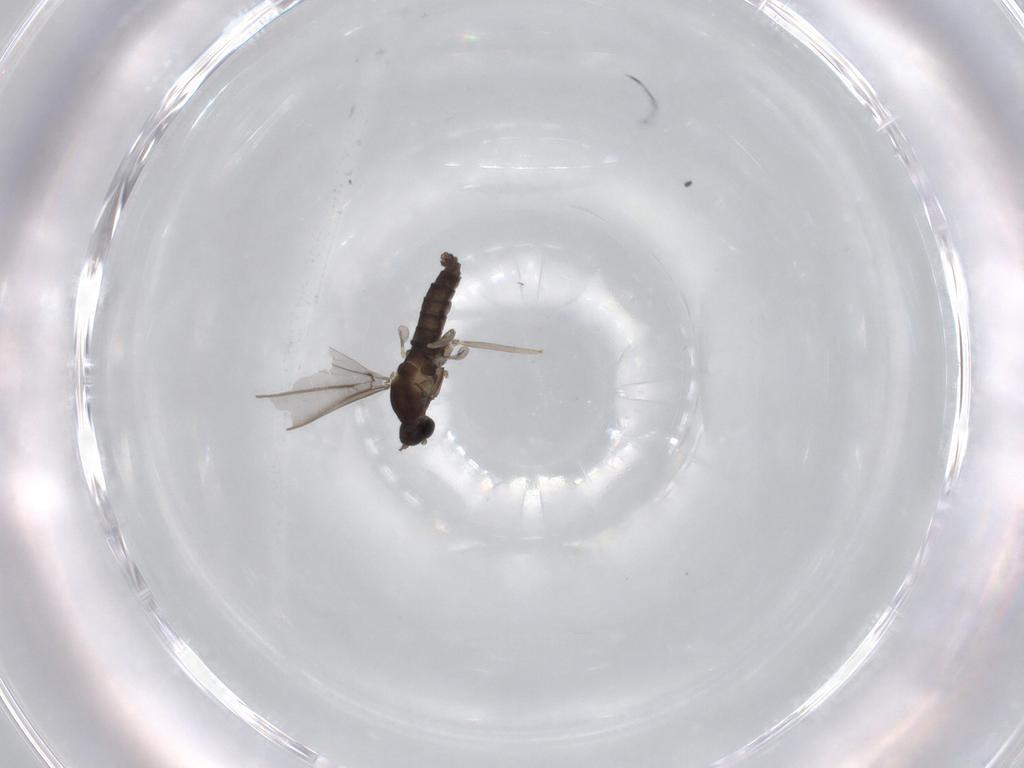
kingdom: Animalia
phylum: Arthropoda
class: Insecta
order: Diptera
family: Cecidomyiidae
